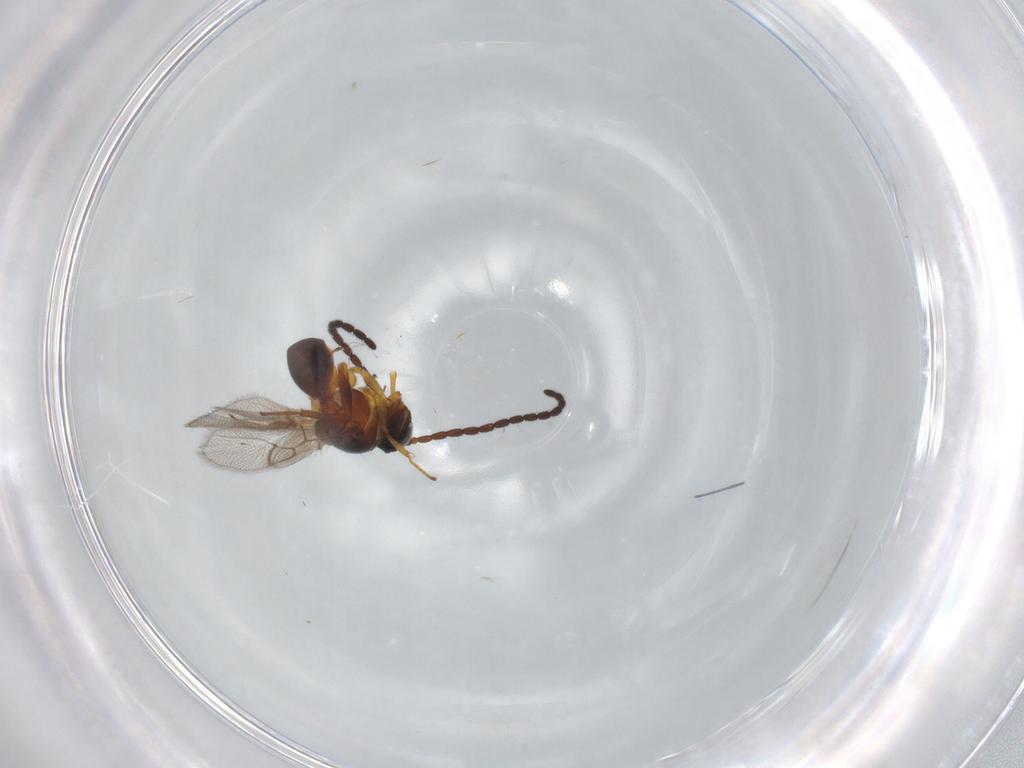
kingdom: Animalia
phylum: Arthropoda
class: Insecta
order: Hymenoptera
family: Figitidae
